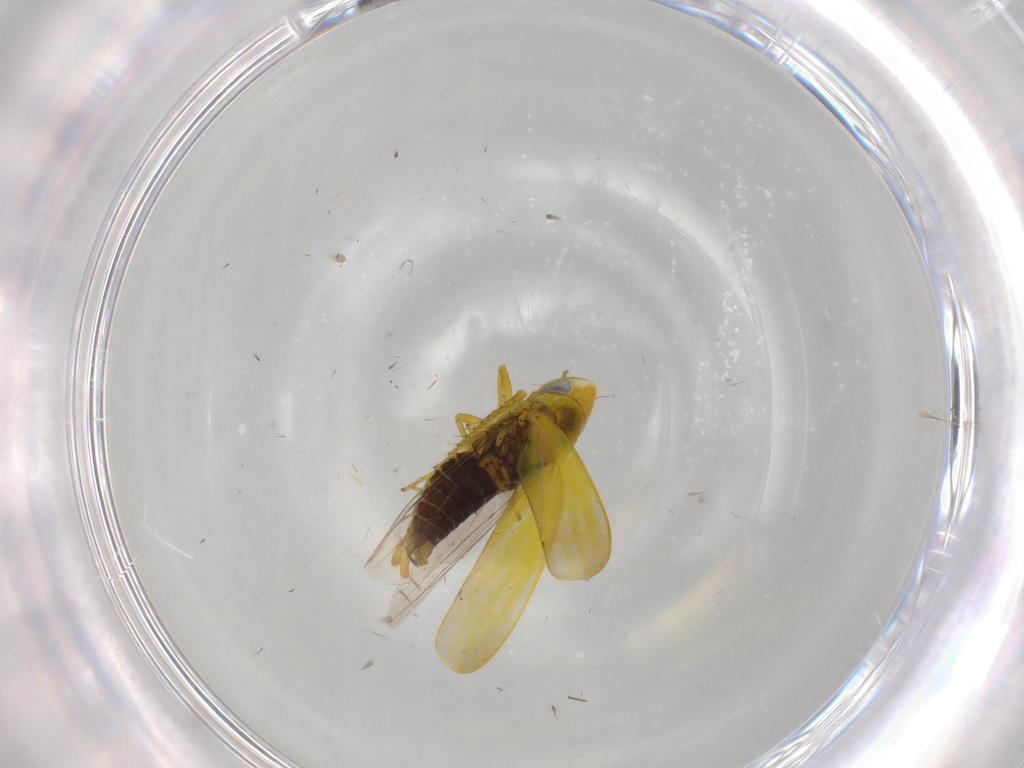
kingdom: Animalia
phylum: Arthropoda
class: Insecta
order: Hemiptera
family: Cicadellidae
